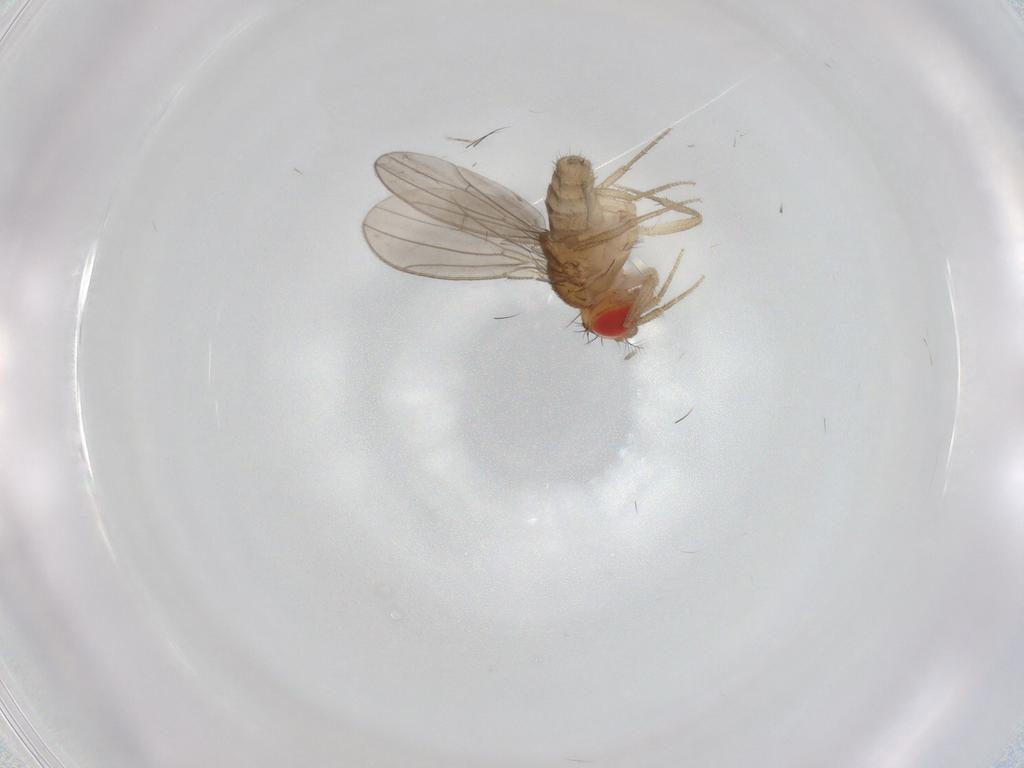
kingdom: Animalia
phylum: Arthropoda
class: Insecta
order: Diptera
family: Drosophilidae
